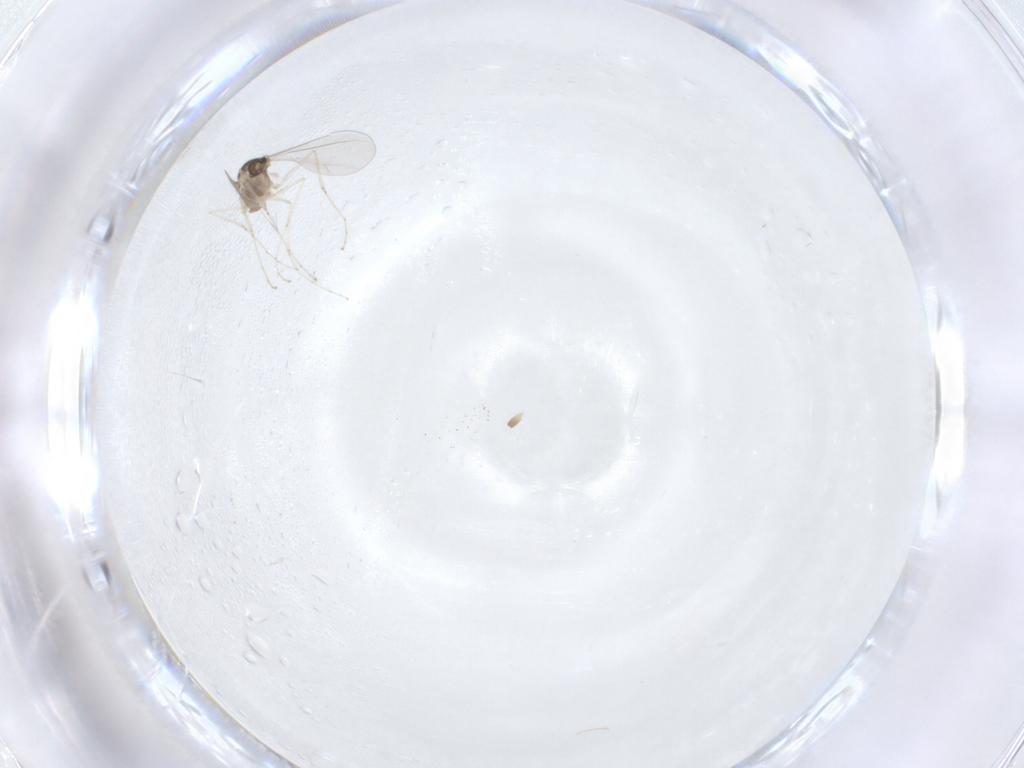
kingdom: Animalia
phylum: Arthropoda
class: Insecta
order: Diptera
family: Cecidomyiidae
